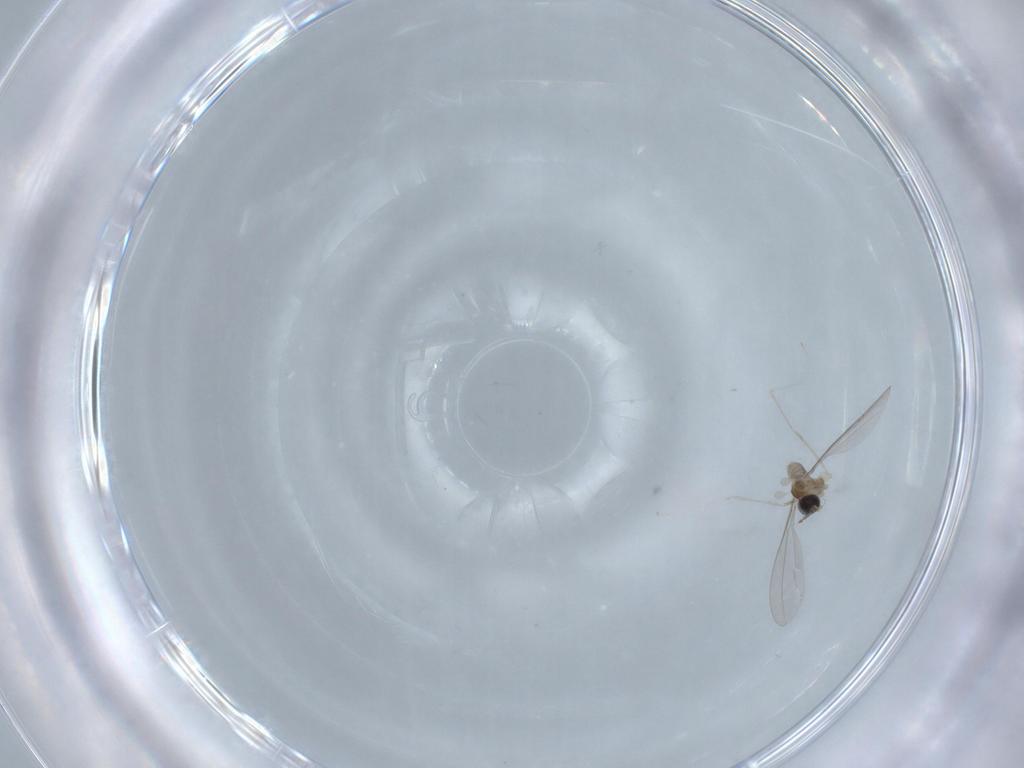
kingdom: Animalia
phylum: Arthropoda
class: Insecta
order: Diptera
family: Cecidomyiidae
